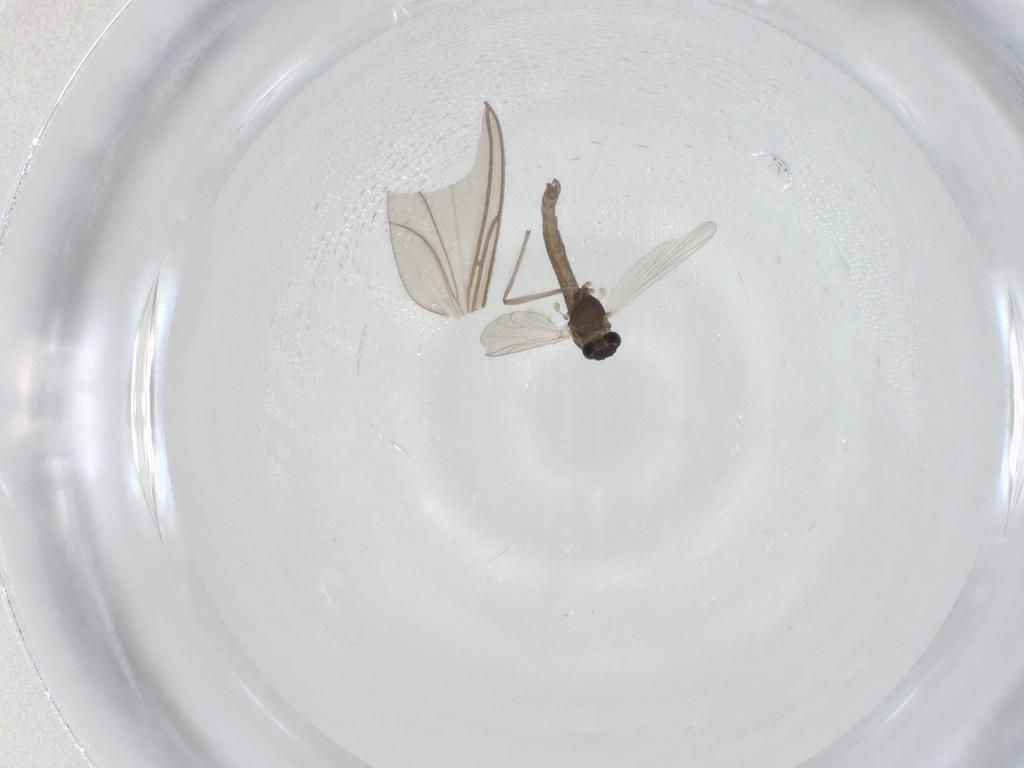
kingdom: Animalia
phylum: Arthropoda
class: Insecta
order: Diptera
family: Chironomidae
